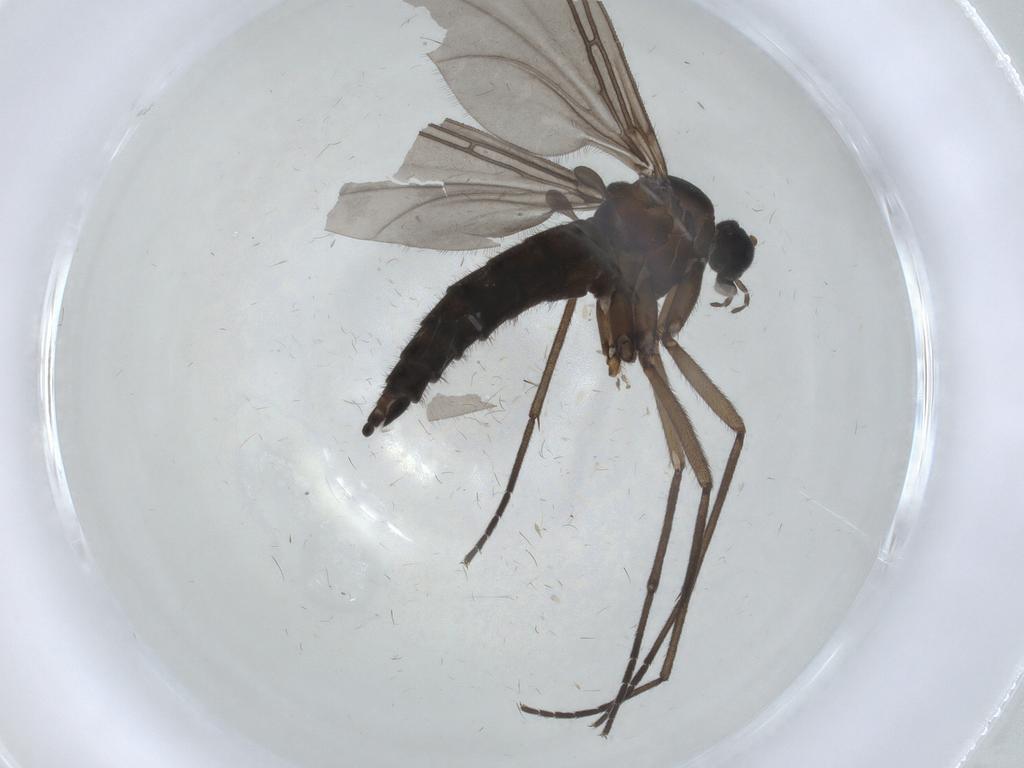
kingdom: Animalia
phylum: Arthropoda
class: Insecta
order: Diptera
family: Sciaridae
